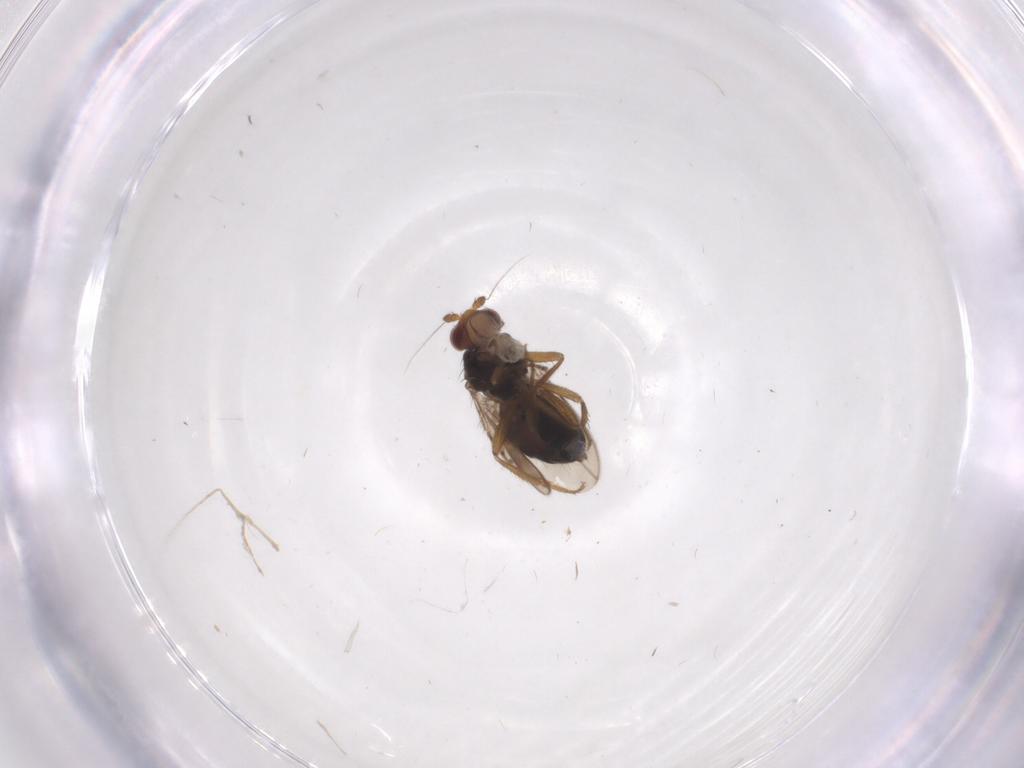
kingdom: Animalia
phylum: Arthropoda
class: Insecta
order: Diptera
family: Sphaeroceridae
